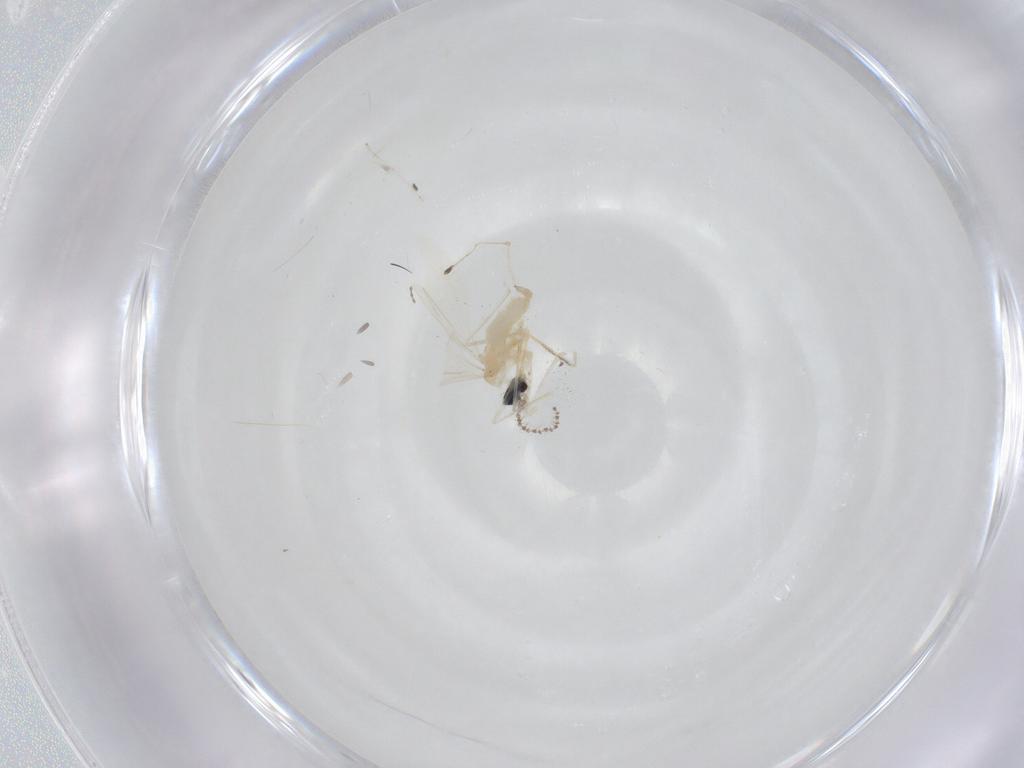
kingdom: Animalia
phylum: Arthropoda
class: Insecta
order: Diptera
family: Cecidomyiidae
